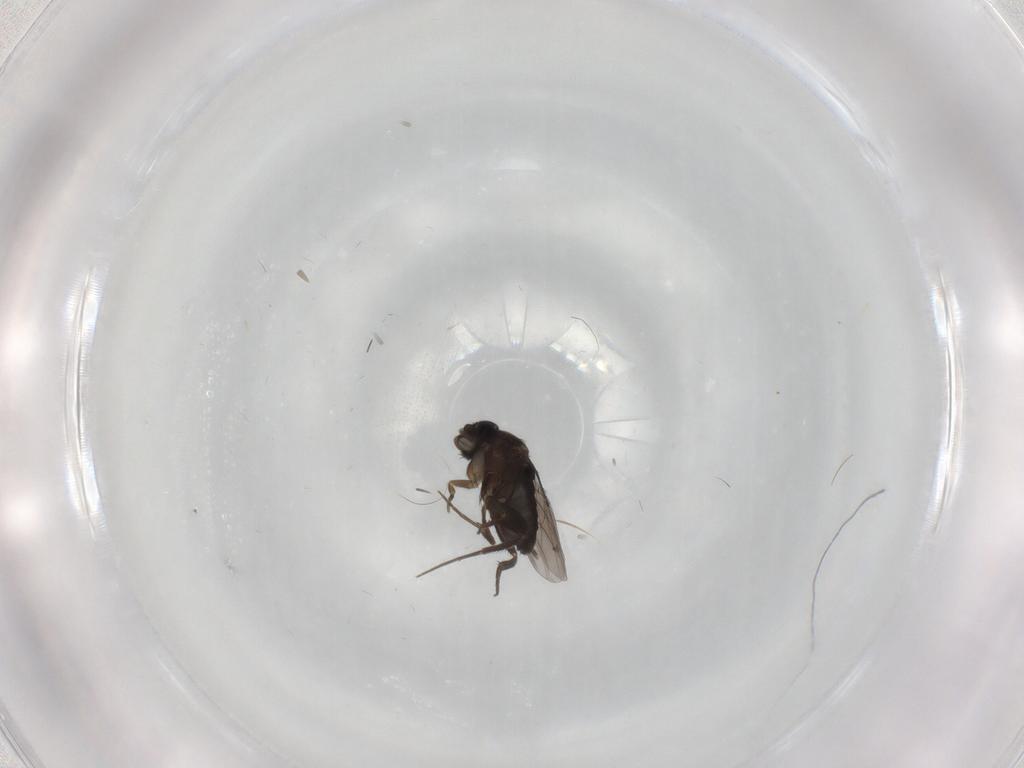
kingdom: Animalia
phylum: Arthropoda
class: Insecta
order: Diptera
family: Phoridae
